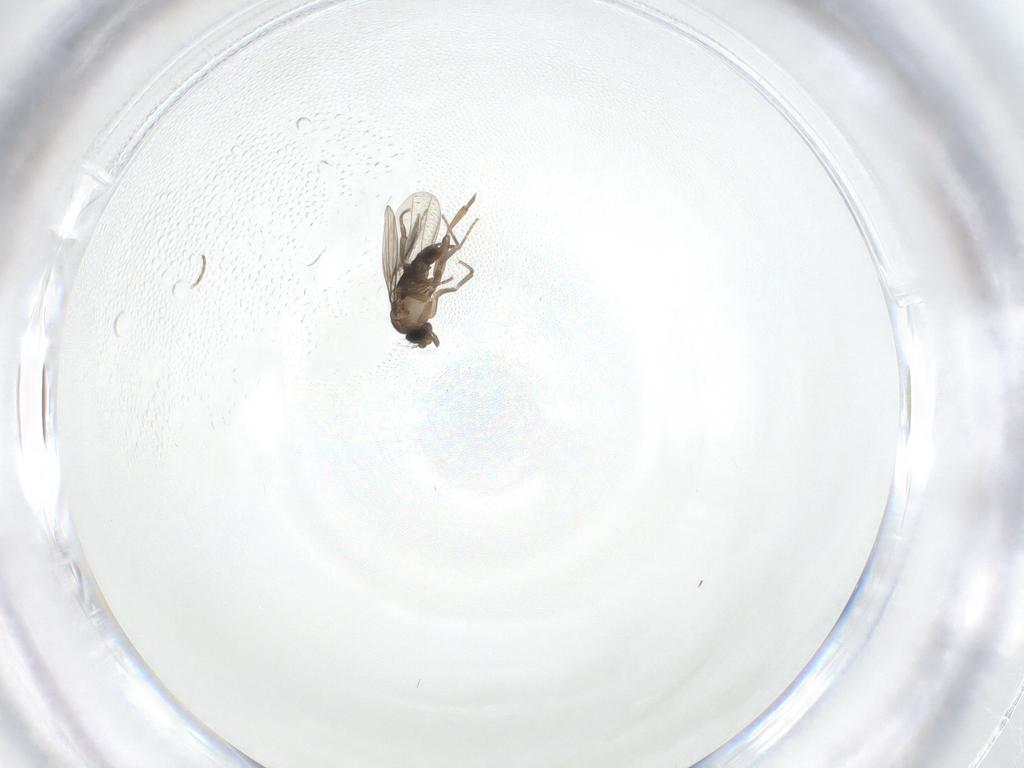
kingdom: Animalia
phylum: Arthropoda
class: Insecta
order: Diptera
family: Phoridae
